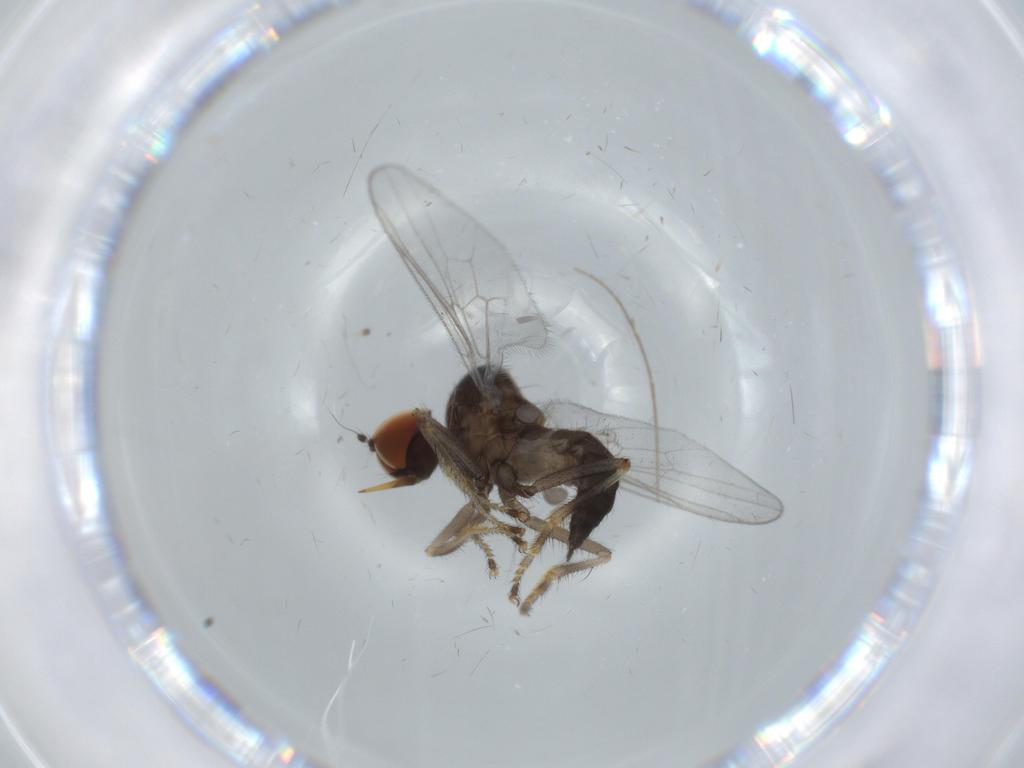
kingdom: Animalia
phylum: Arthropoda
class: Insecta
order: Diptera
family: Hybotidae
